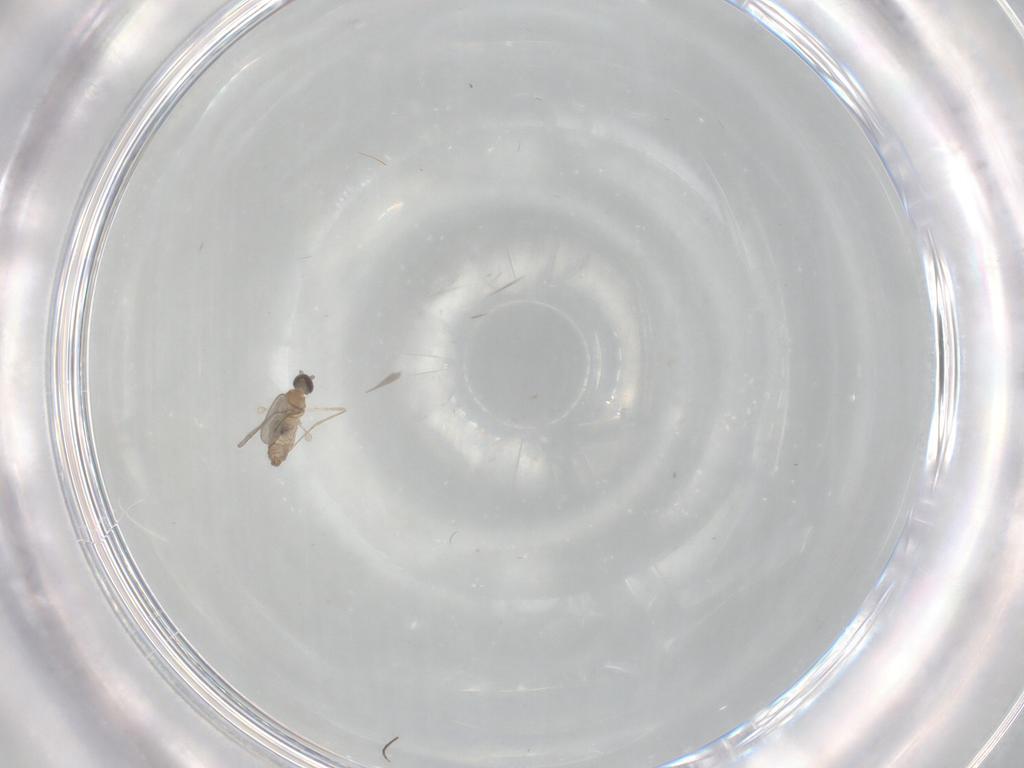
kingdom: Animalia
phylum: Arthropoda
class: Insecta
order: Diptera
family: Cecidomyiidae
